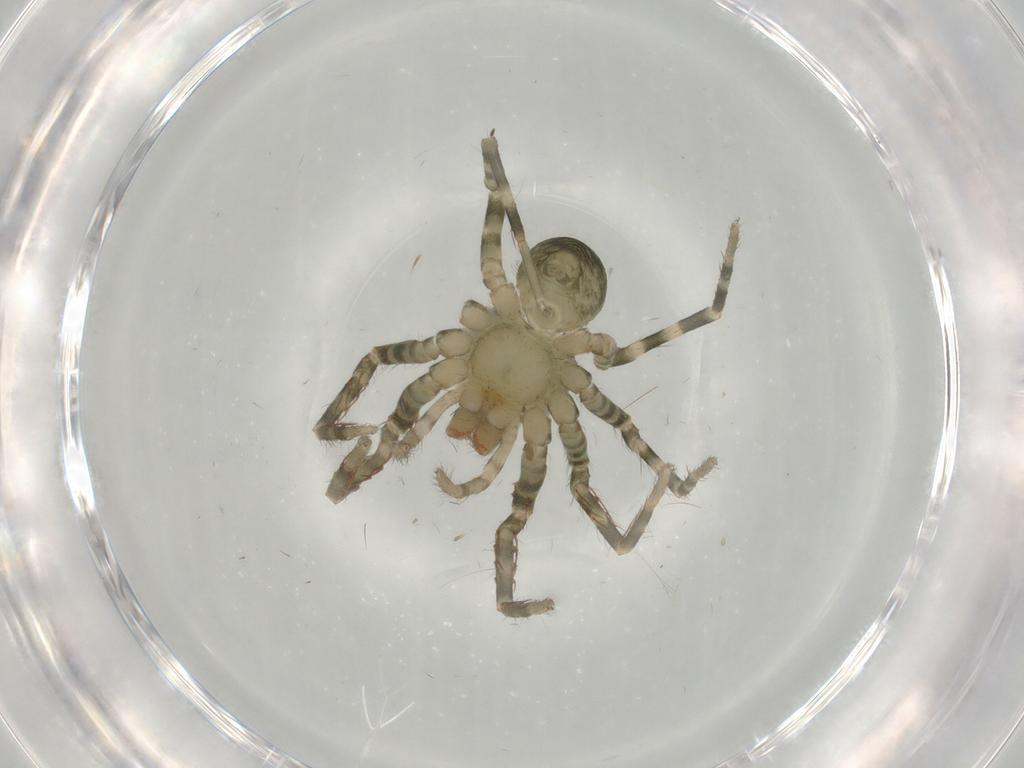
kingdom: Animalia
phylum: Arthropoda
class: Arachnida
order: Araneae
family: Ctenidae
